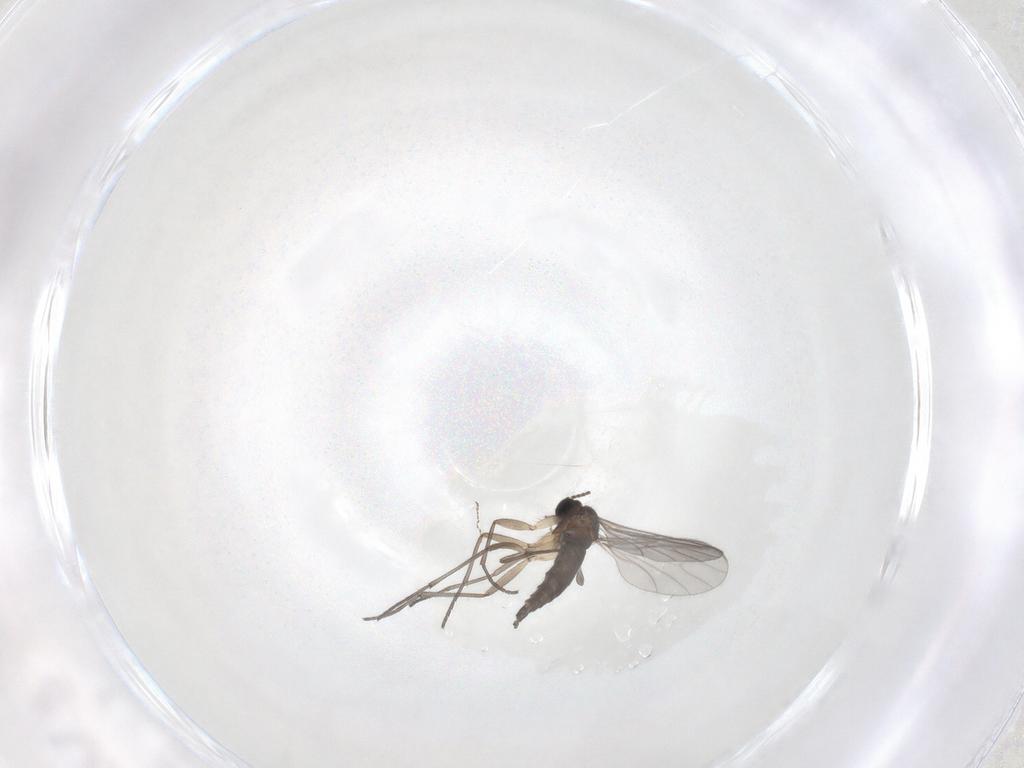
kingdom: Animalia
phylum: Arthropoda
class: Insecta
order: Diptera
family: Sciaridae
